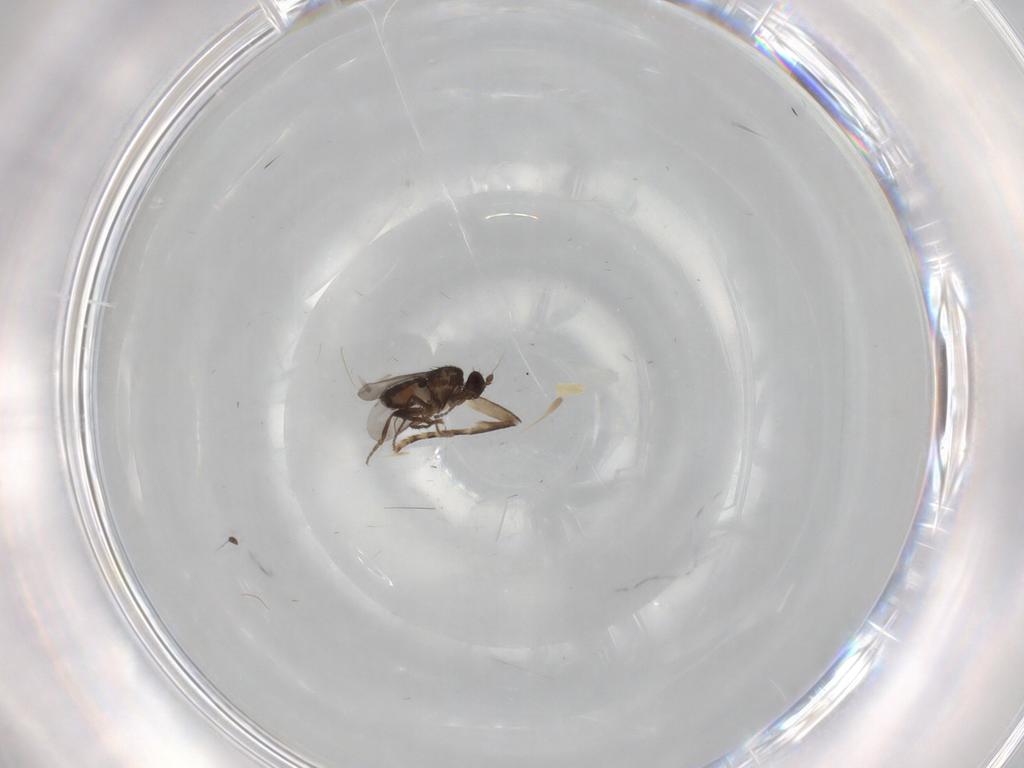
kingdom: Animalia
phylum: Arthropoda
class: Insecta
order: Diptera
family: Sphaeroceridae
